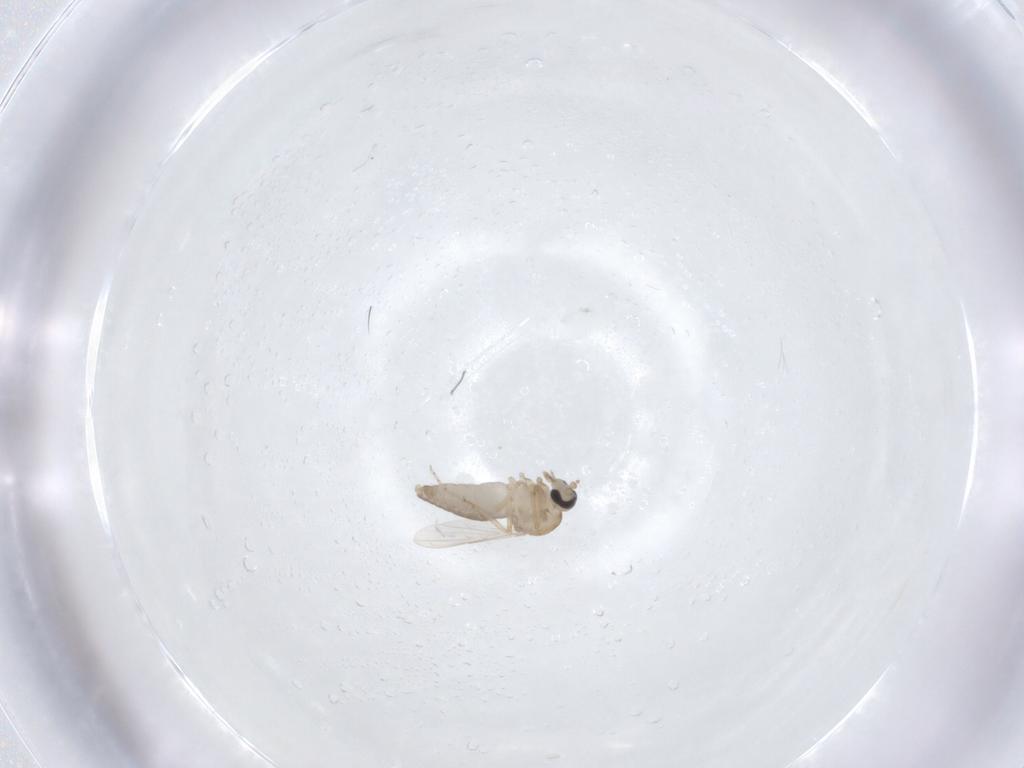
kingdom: Animalia
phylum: Arthropoda
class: Insecta
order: Diptera
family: Ceratopogonidae
